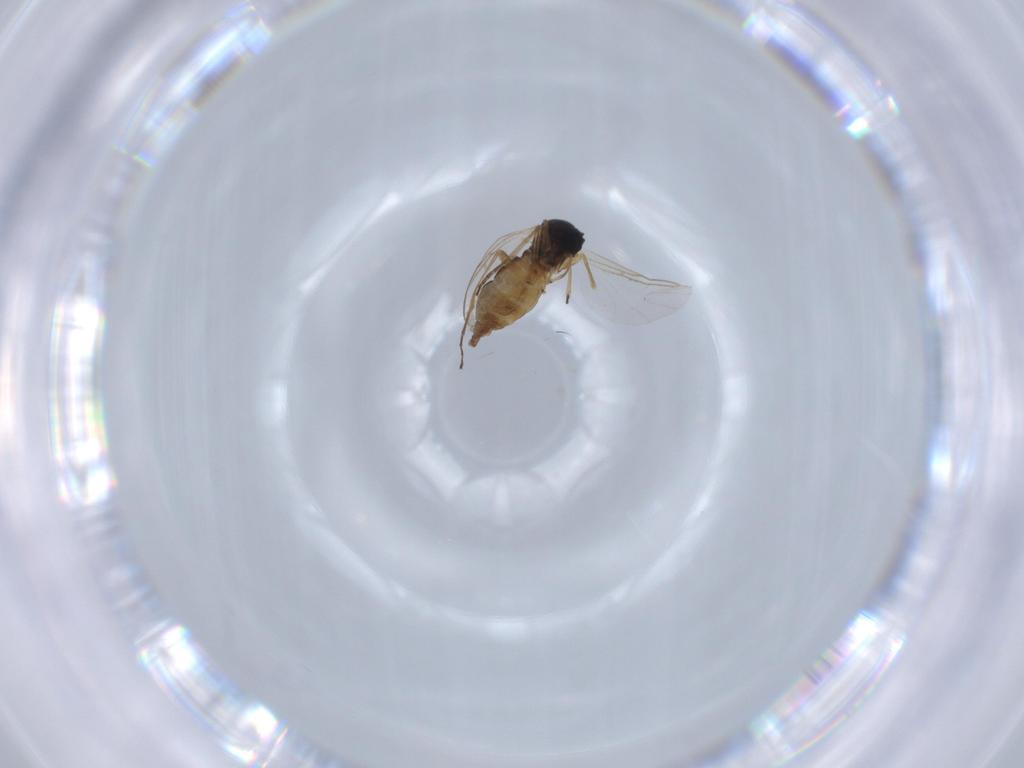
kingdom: Animalia
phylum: Arthropoda
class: Insecta
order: Diptera
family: Sciaridae
